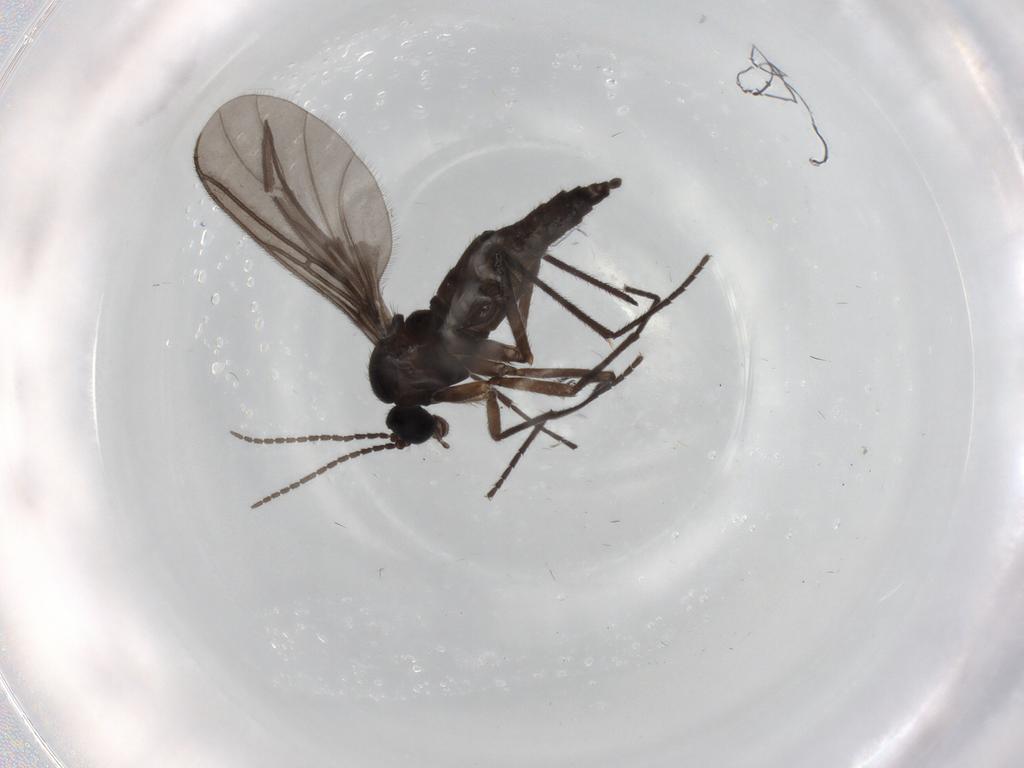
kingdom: Animalia
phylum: Arthropoda
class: Insecta
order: Diptera
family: Sciaridae
